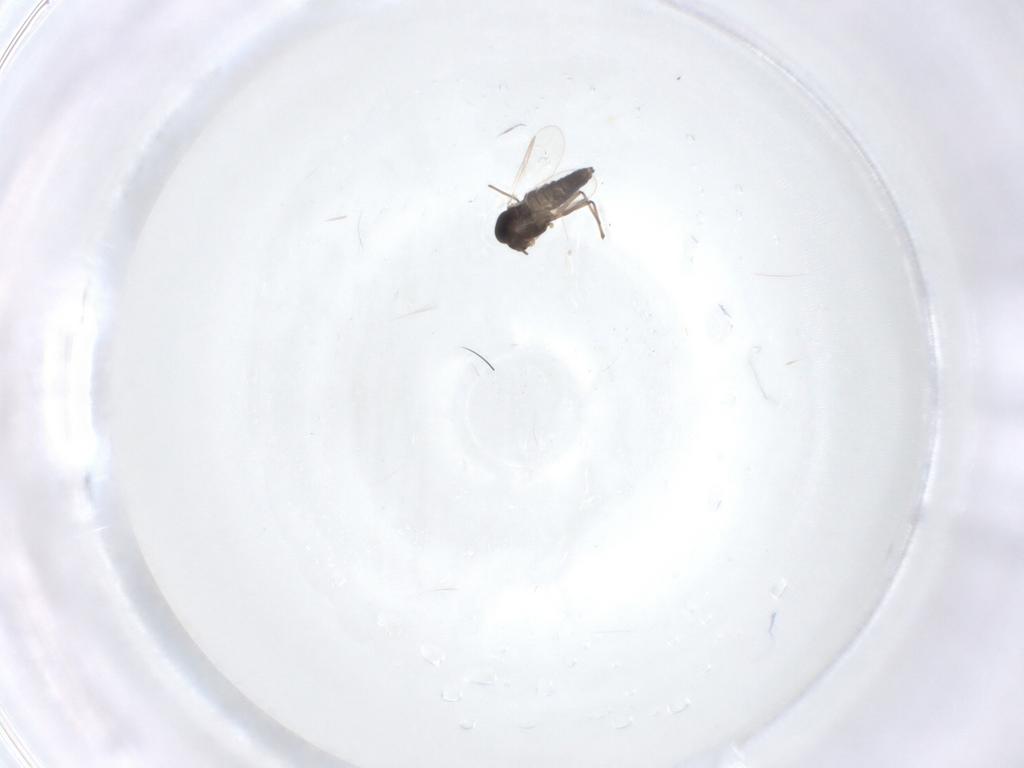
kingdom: Animalia
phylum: Arthropoda
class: Insecta
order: Diptera
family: Chironomidae
